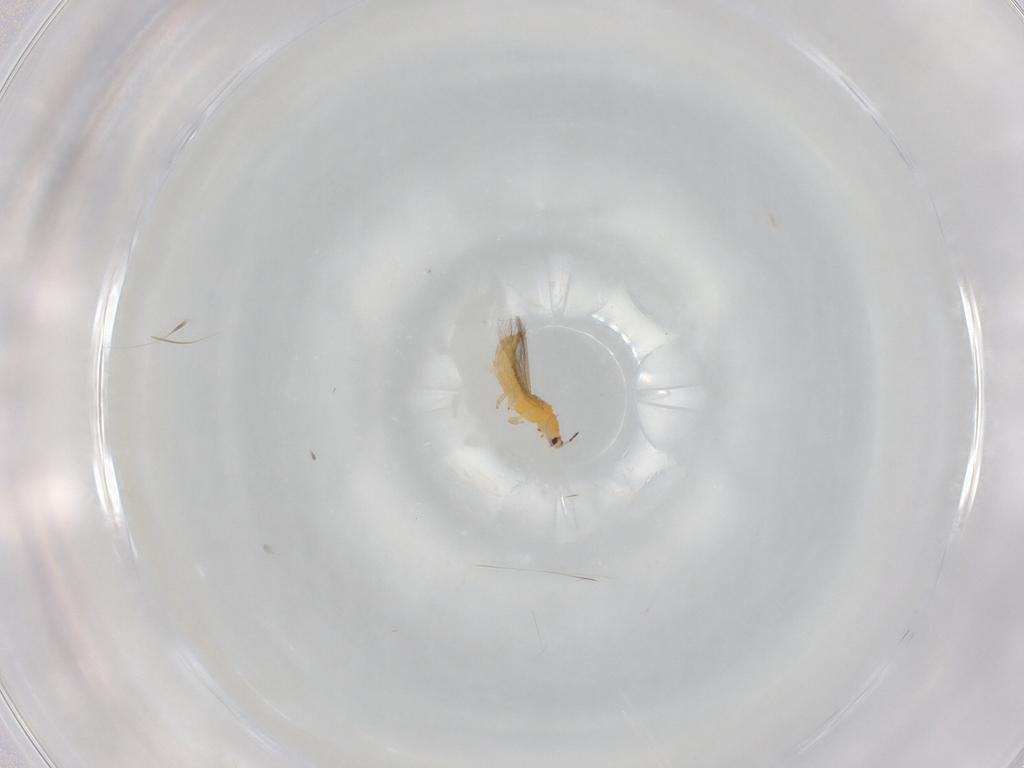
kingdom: Animalia
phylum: Arthropoda
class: Insecta
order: Thysanoptera
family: Thripidae
